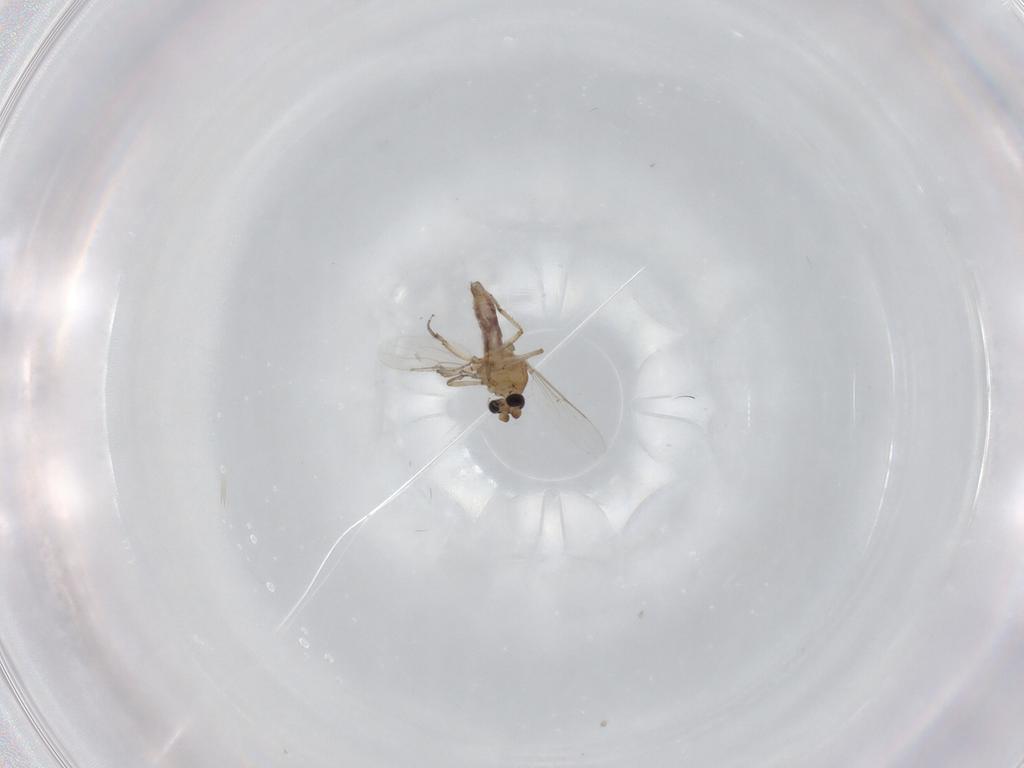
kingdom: Animalia
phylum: Arthropoda
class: Insecta
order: Diptera
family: Ceratopogonidae
